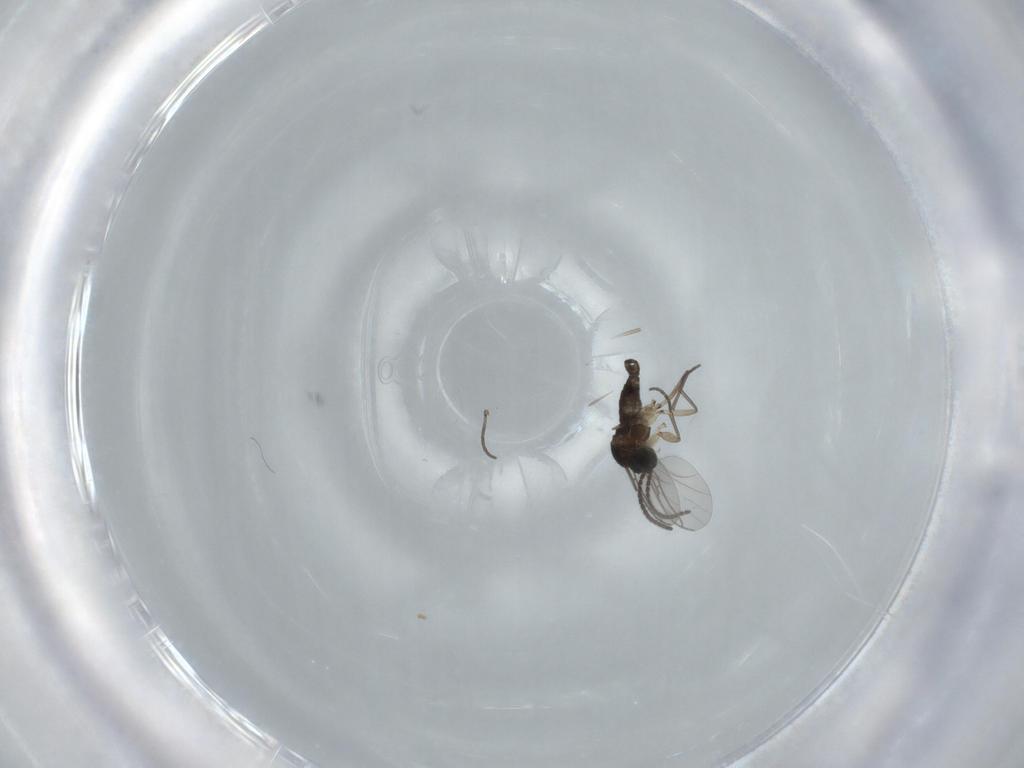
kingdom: Animalia
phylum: Arthropoda
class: Insecta
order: Diptera
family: Sciaridae
